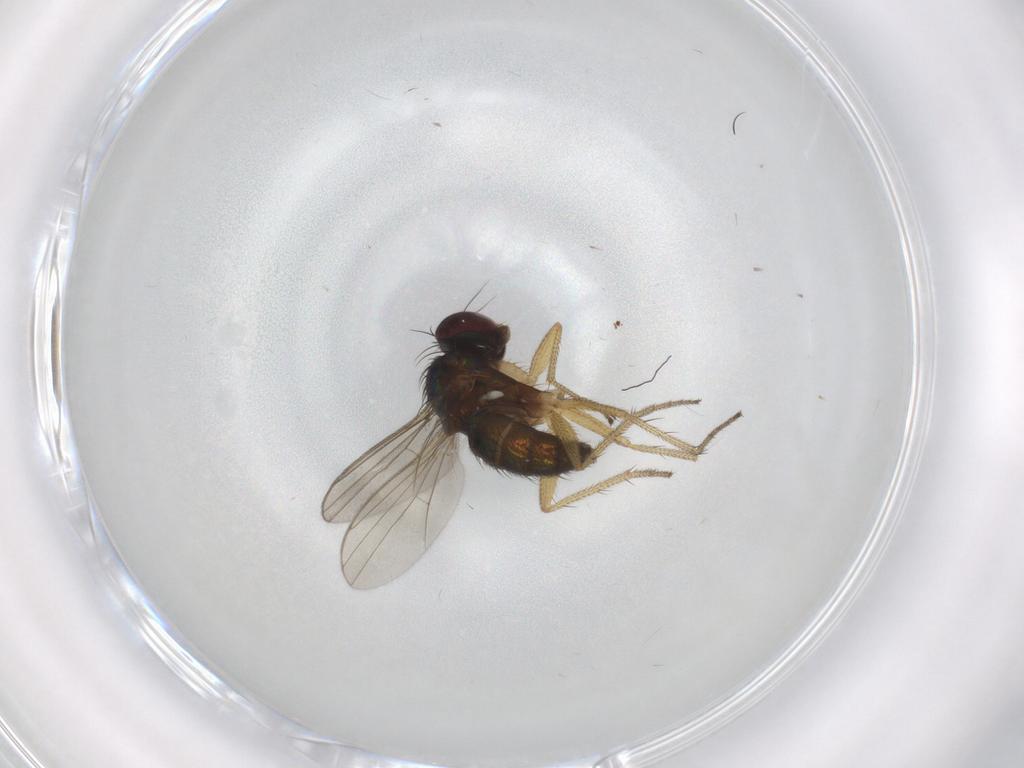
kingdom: Animalia
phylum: Arthropoda
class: Insecta
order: Diptera
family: Dolichopodidae
